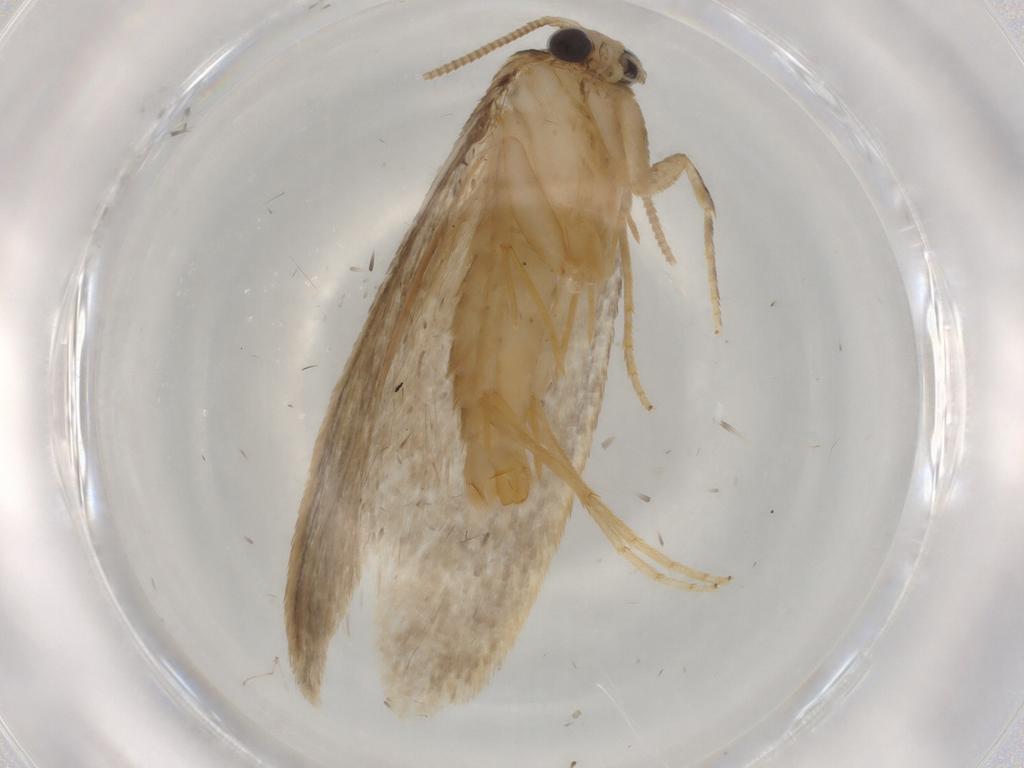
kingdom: Animalia
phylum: Arthropoda
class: Insecta
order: Lepidoptera
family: Tineidae
